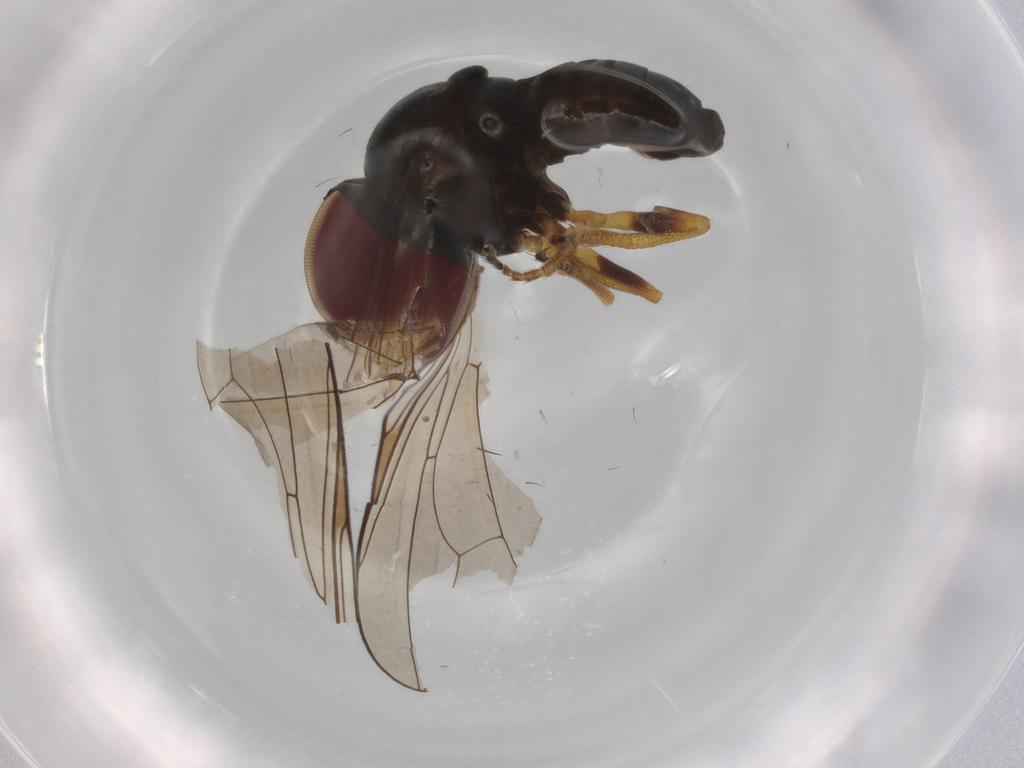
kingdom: Animalia
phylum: Arthropoda
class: Insecta
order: Diptera
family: Pipunculidae
